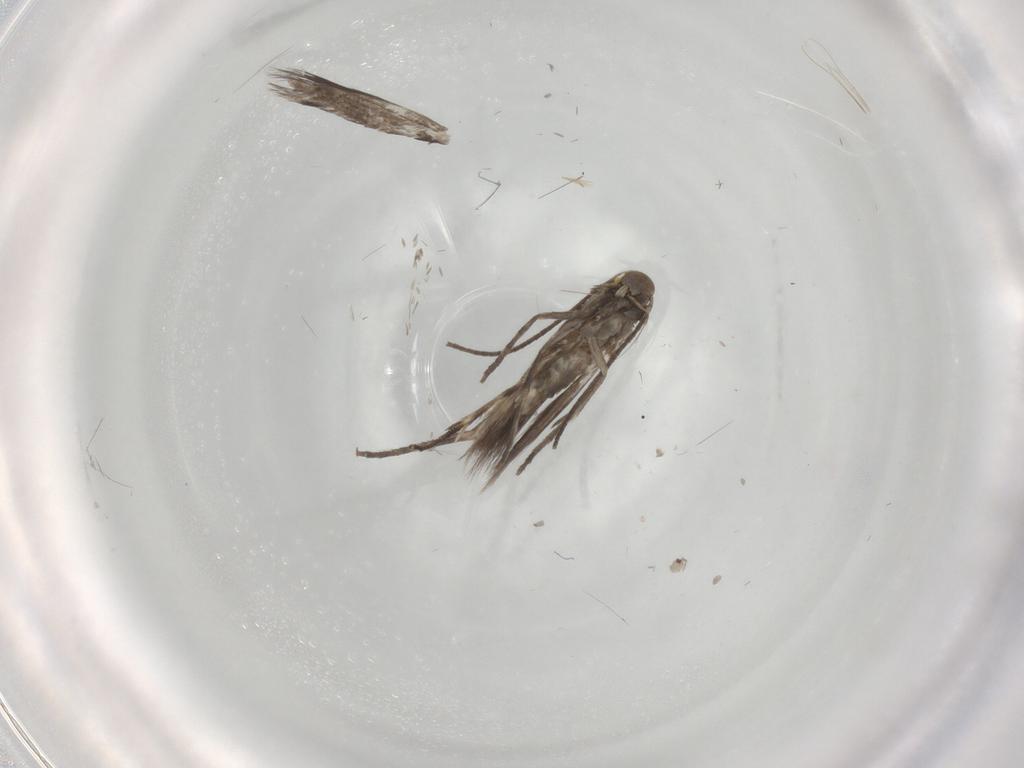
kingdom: Animalia
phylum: Arthropoda
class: Insecta
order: Lepidoptera
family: Gracillariidae
